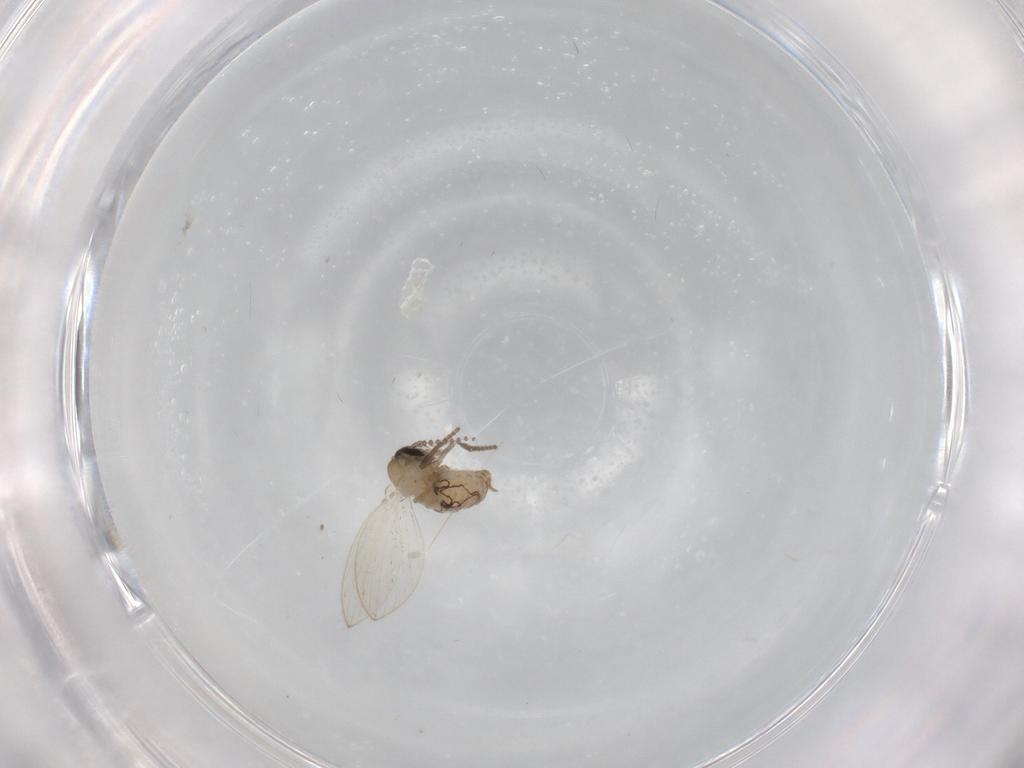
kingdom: Animalia
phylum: Arthropoda
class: Insecta
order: Diptera
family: Psychodidae
